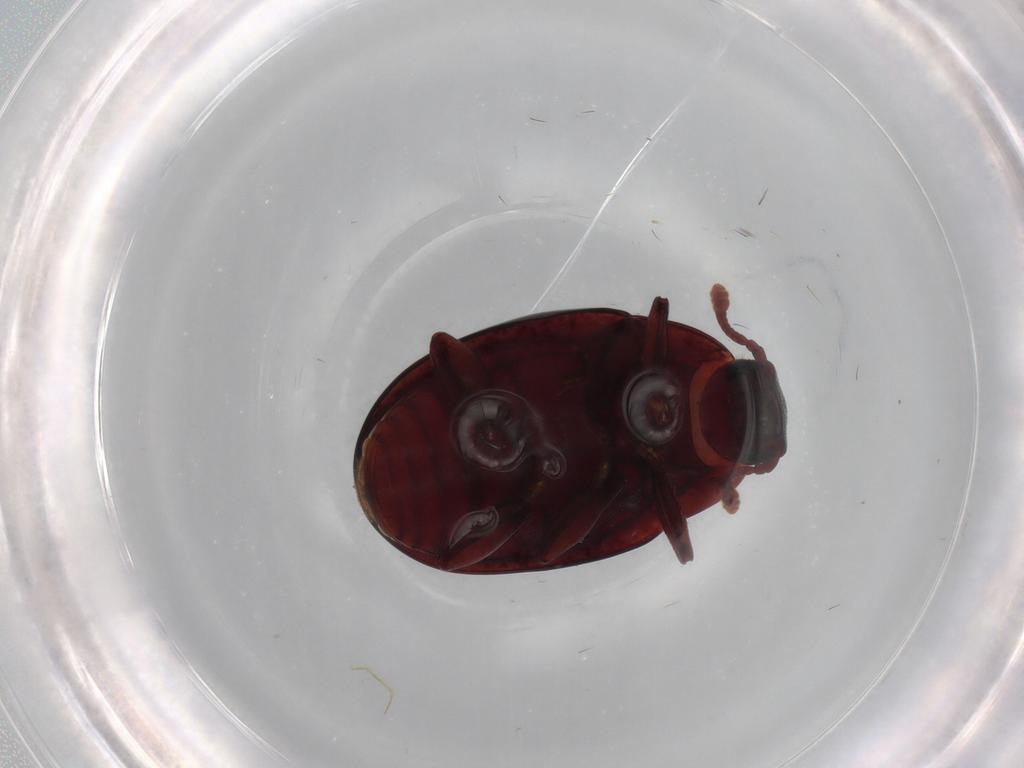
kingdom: Animalia
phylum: Arthropoda
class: Insecta
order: Coleoptera
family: Zopheridae
